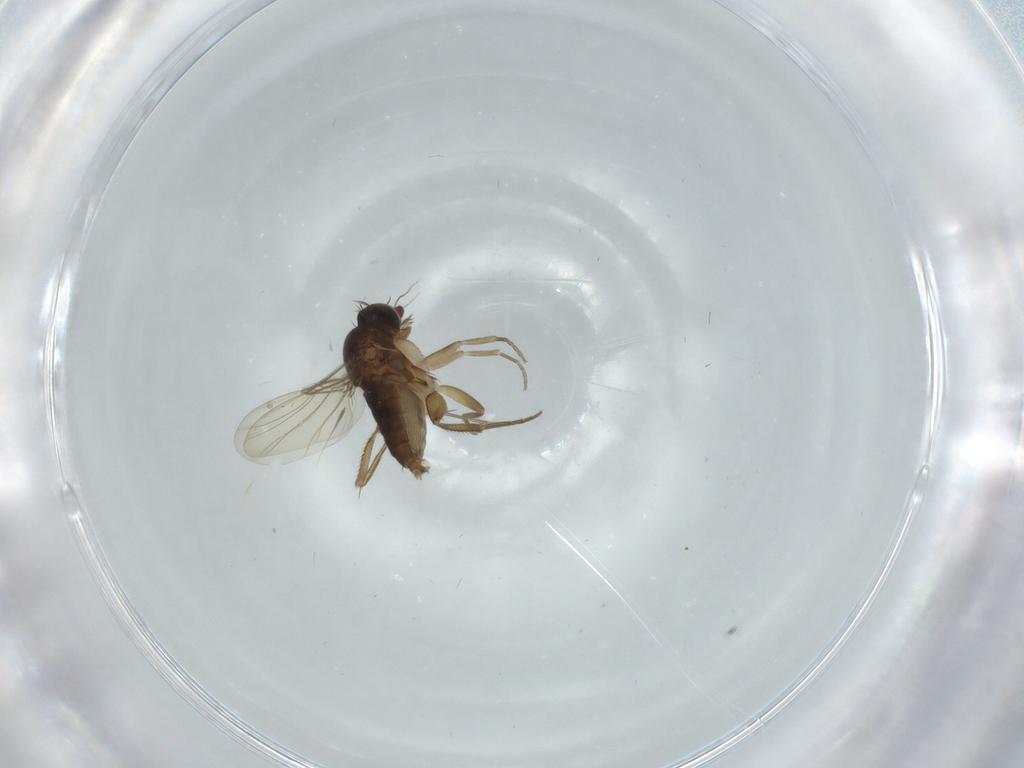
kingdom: Animalia
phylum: Arthropoda
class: Insecta
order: Diptera
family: Phoridae
